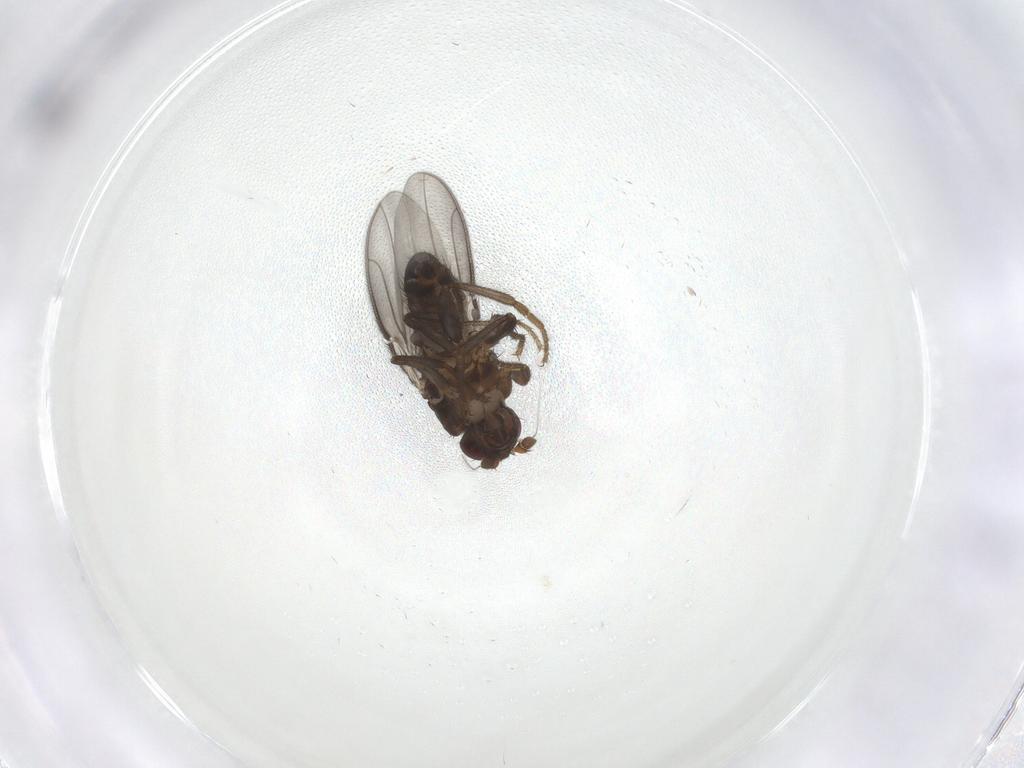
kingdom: Animalia
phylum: Arthropoda
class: Insecta
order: Diptera
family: Sphaeroceridae
